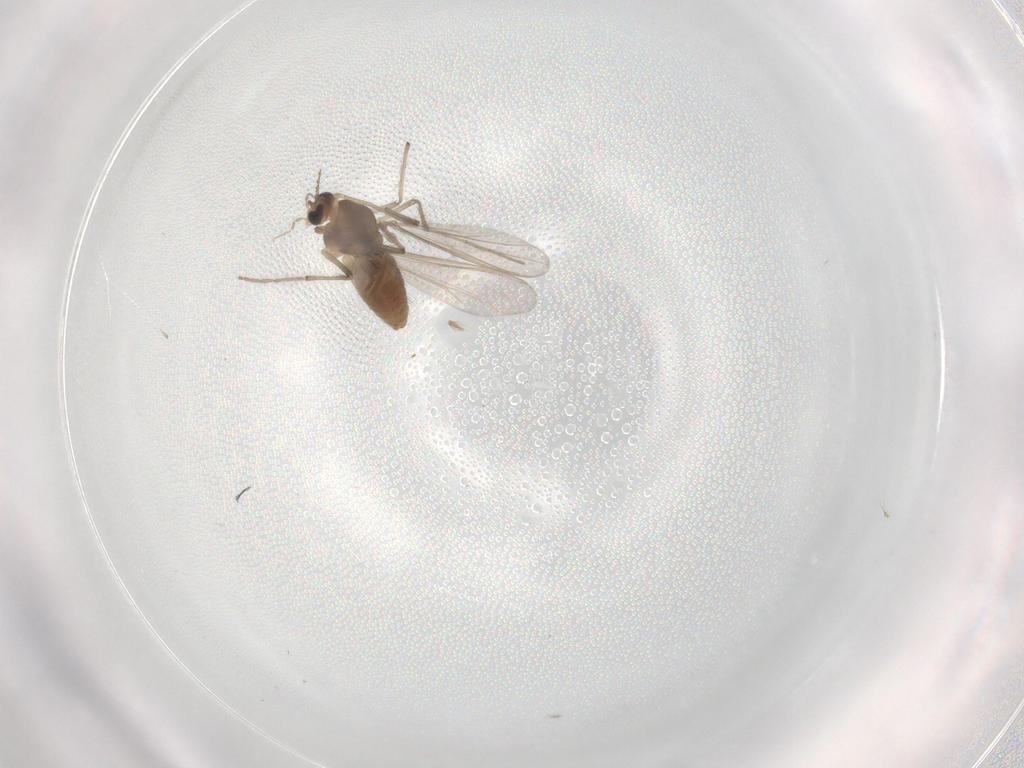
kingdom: Animalia
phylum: Arthropoda
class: Insecta
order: Diptera
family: Chironomidae
